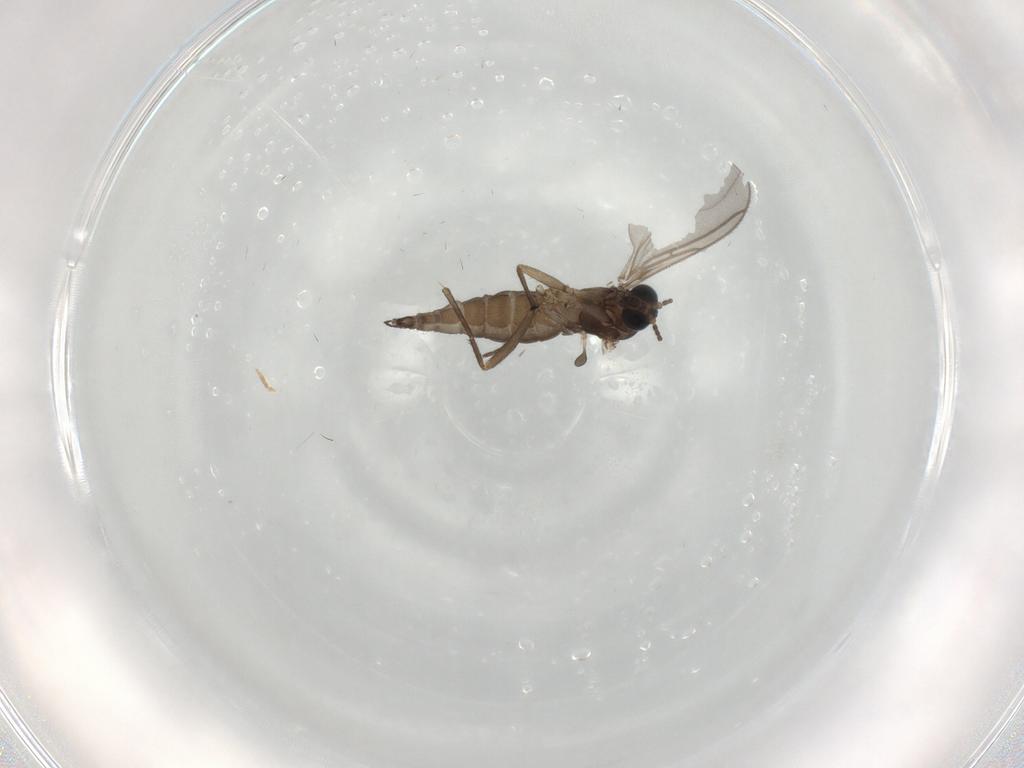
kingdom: Animalia
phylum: Arthropoda
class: Insecta
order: Diptera
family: Sciaridae
